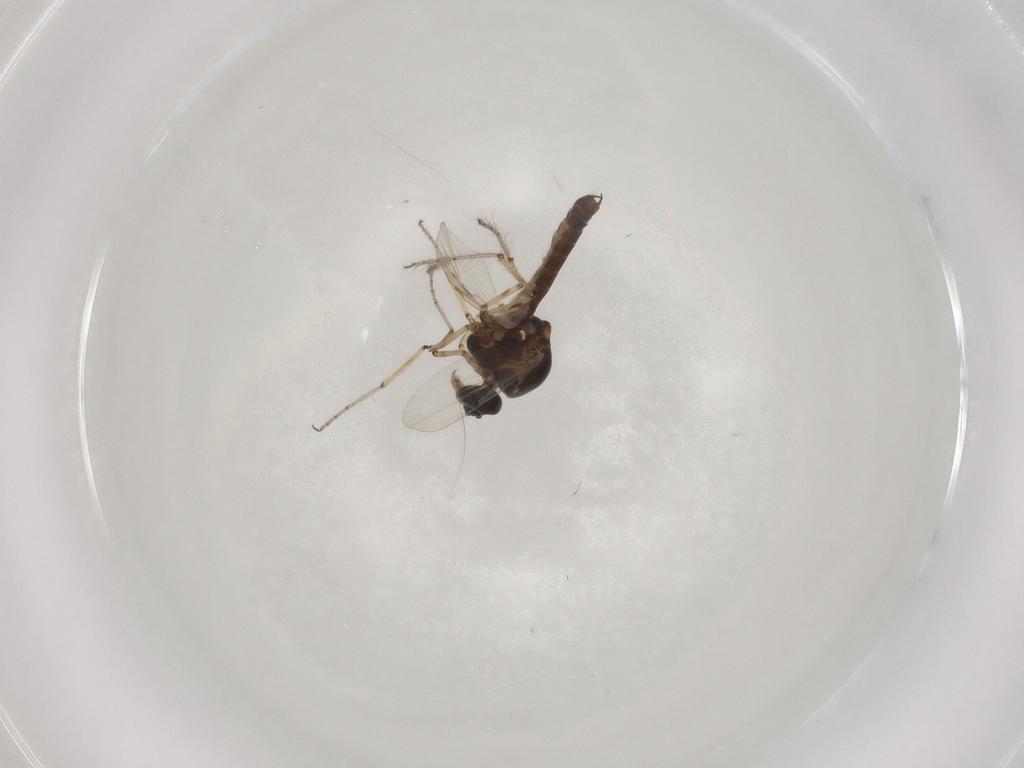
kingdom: Animalia
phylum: Arthropoda
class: Insecta
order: Diptera
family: Ceratopogonidae
